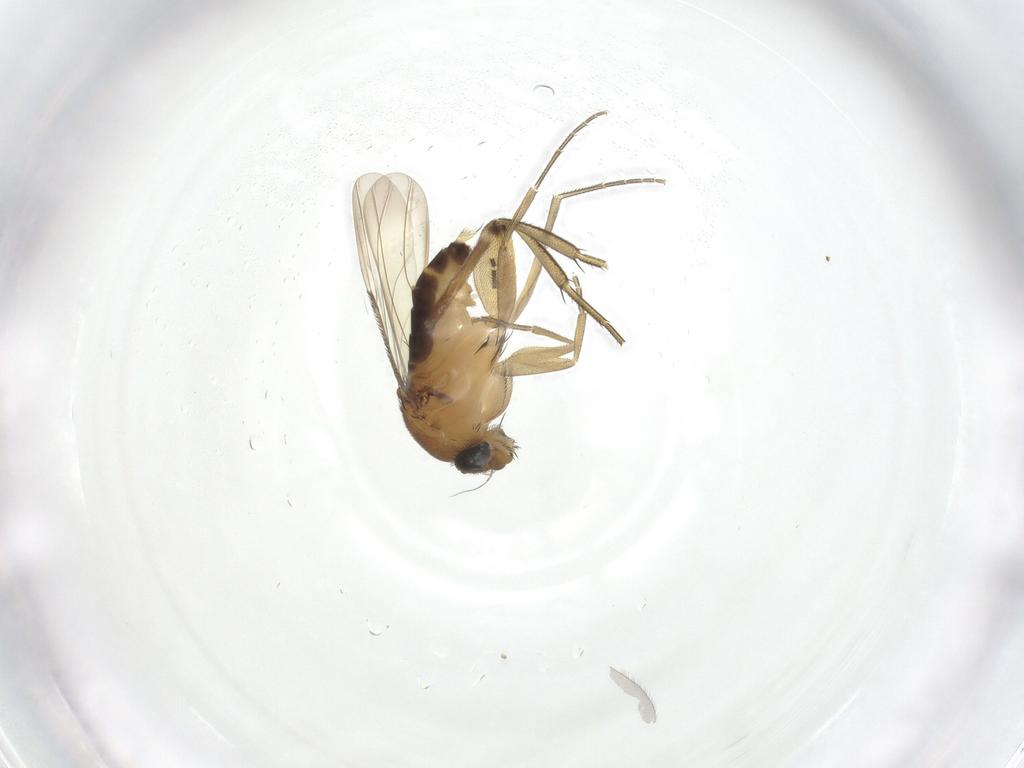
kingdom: Animalia
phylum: Arthropoda
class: Insecta
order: Diptera
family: Phoridae
